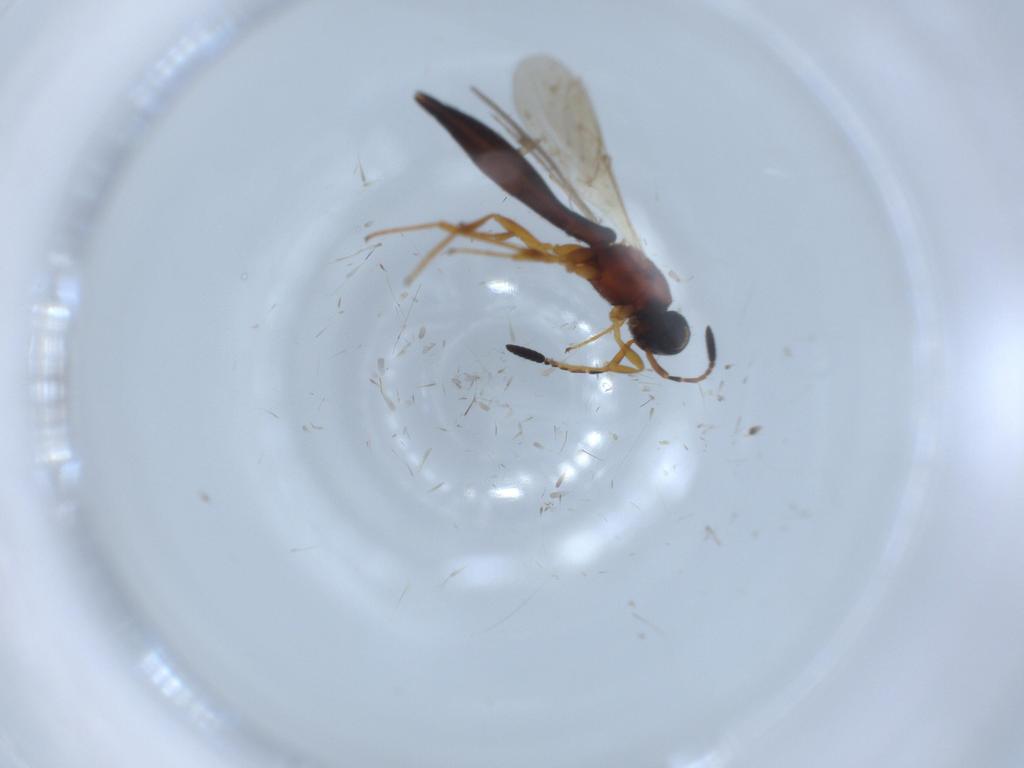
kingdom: Animalia
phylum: Arthropoda
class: Insecta
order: Hymenoptera
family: Scelionidae
